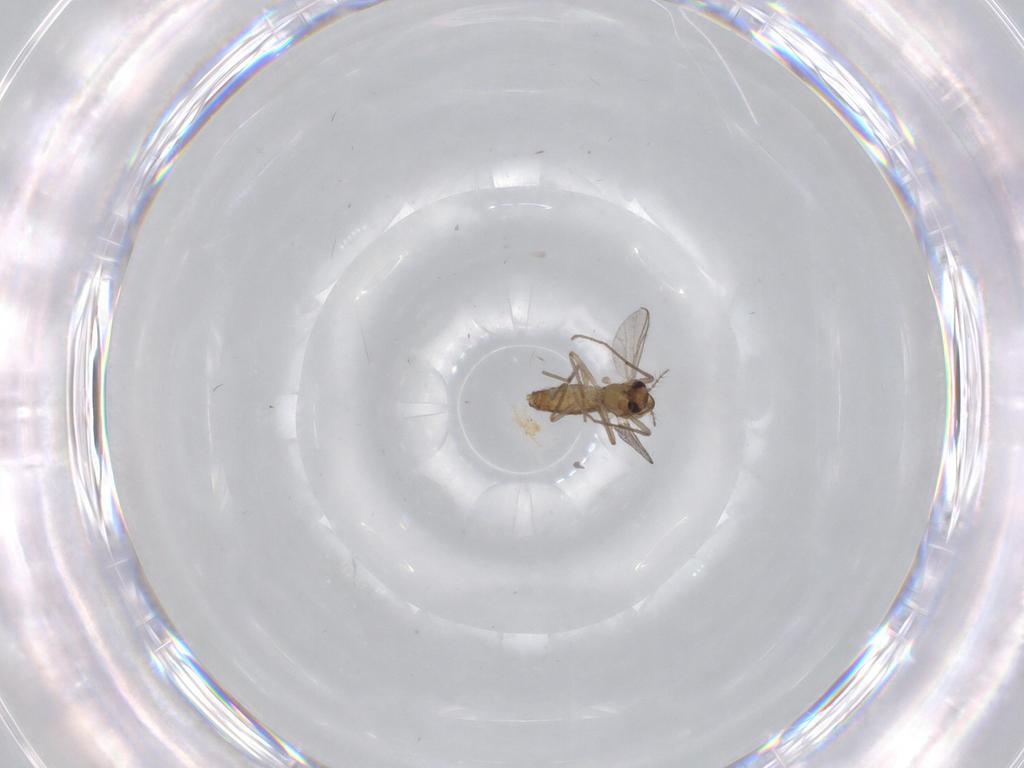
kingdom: Animalia
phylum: Arthropoda
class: Insecta
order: Diptera
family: Chironomidae
